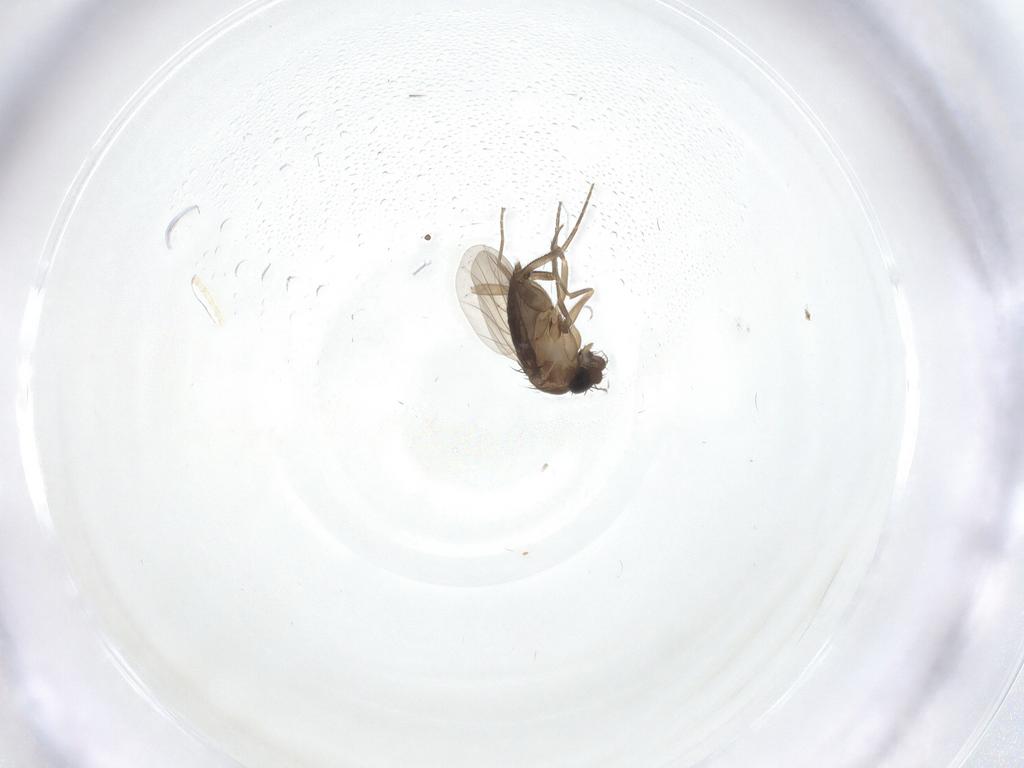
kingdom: Animalia
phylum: Arthropoda
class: Insecta
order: Diptera
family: Phoridae
